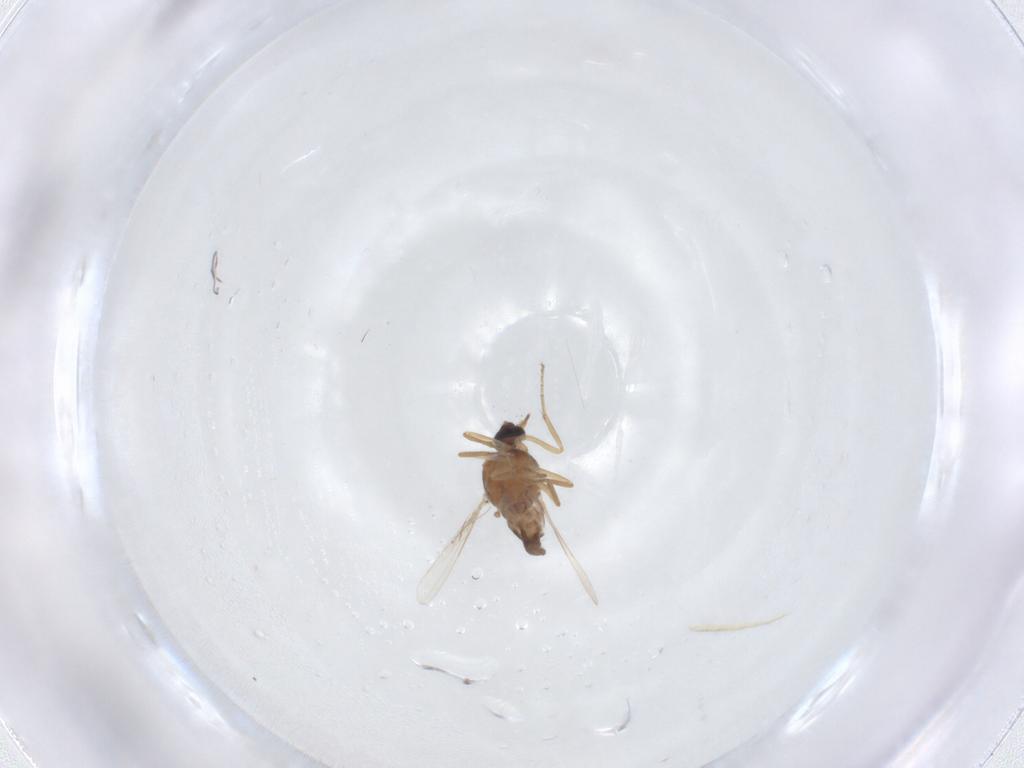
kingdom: Animalia
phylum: Arthropoda
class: Insecta
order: Diptera
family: Ceratopogonidae
